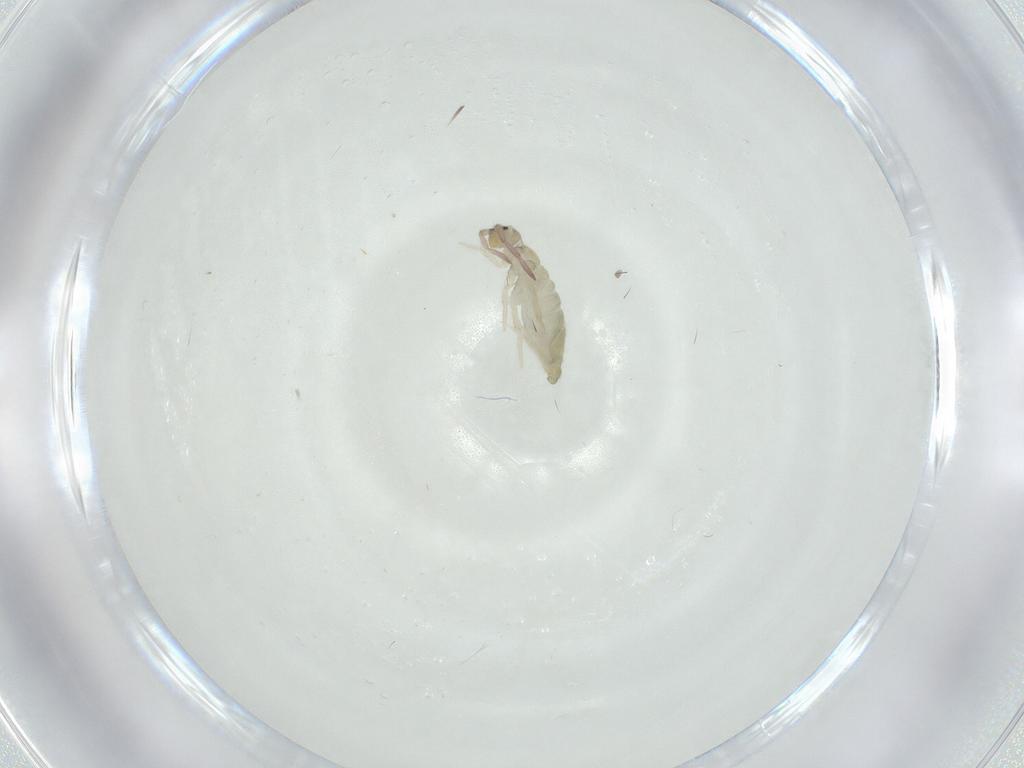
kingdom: Animalia
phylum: Arthropoda
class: Collembola
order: Entomobryomorpha
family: Entomobryidae
